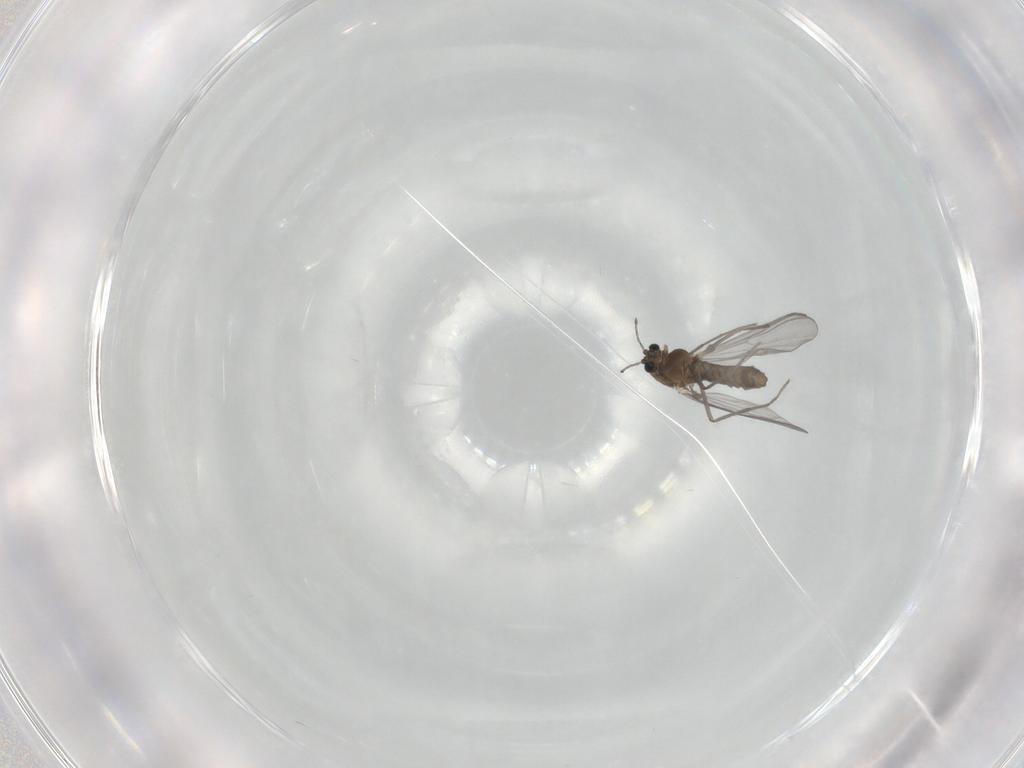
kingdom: Animalia
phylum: Arthropoda
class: Insecta
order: Diptera
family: Chironomidae
